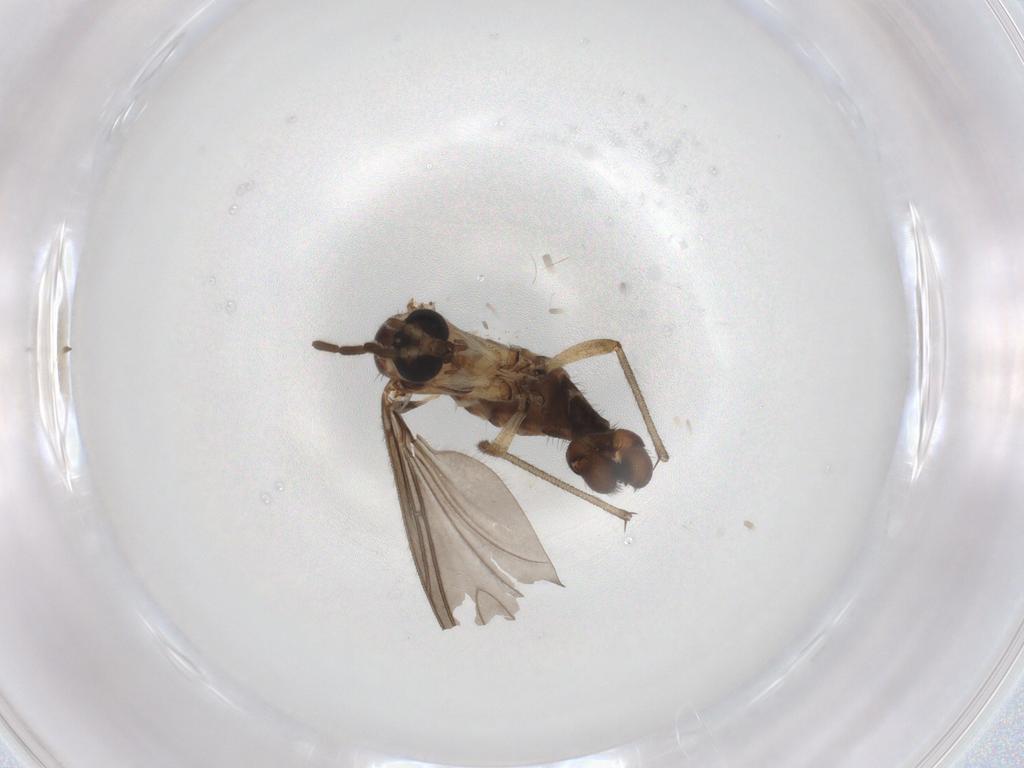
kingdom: Animalia
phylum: Arthropoda
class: Insecta
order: Diptera
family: Sciaridae
